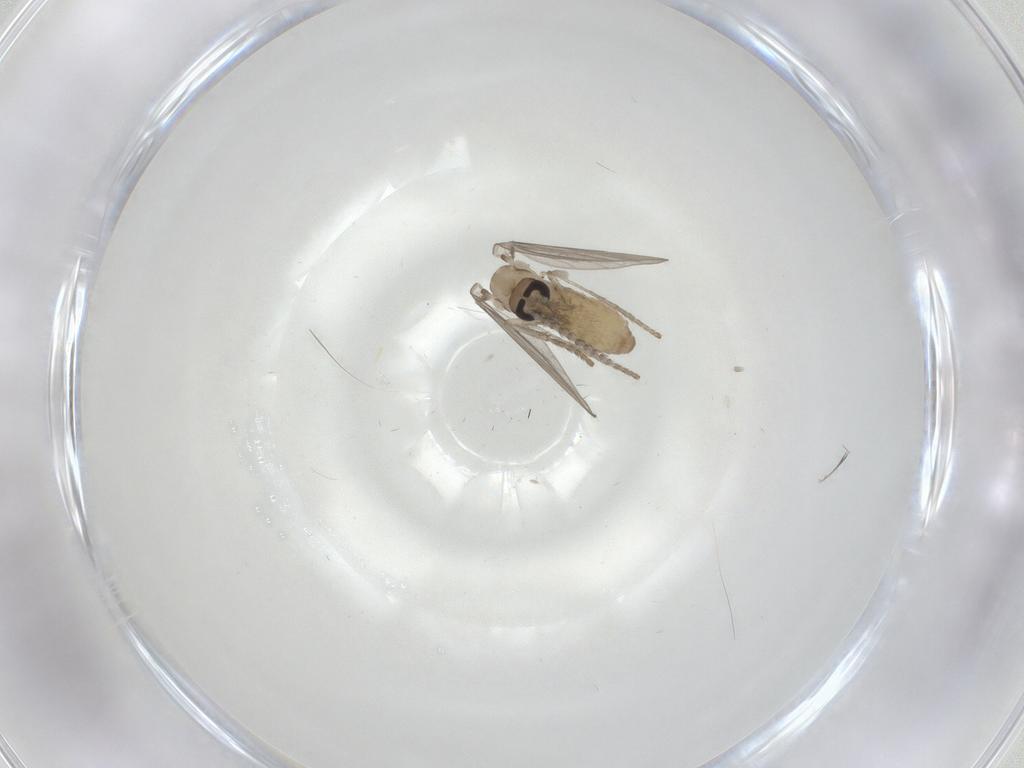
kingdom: Animalia
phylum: Arthropoda
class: Insecta
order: Diptera
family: Psychodidae
